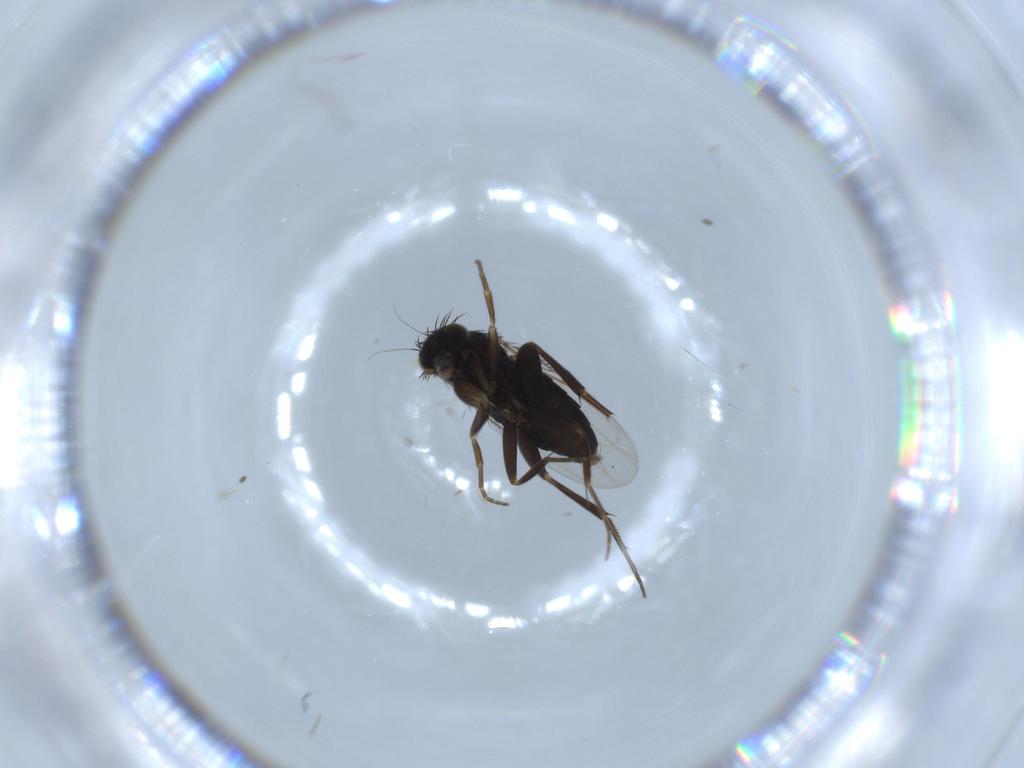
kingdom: Animalia
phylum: Arthropoda
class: Insecta
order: Diptera
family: Phoridae
